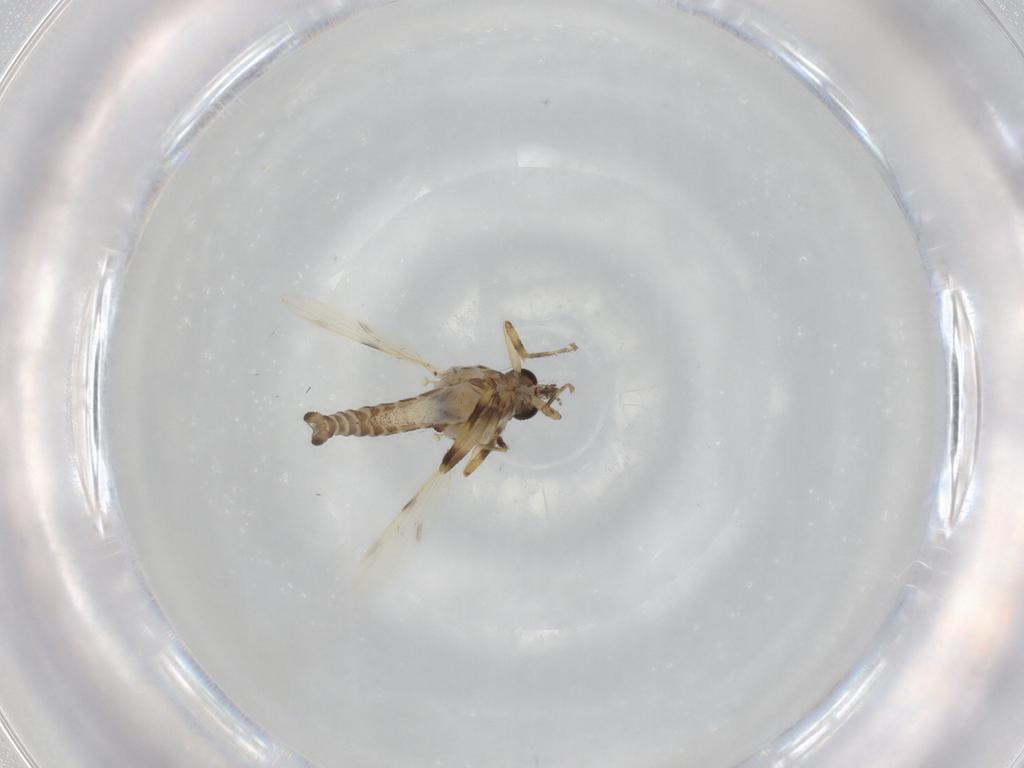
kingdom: Animalia
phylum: Arthropoda
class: Insecta
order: Diptera
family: Ceratopogonidae
